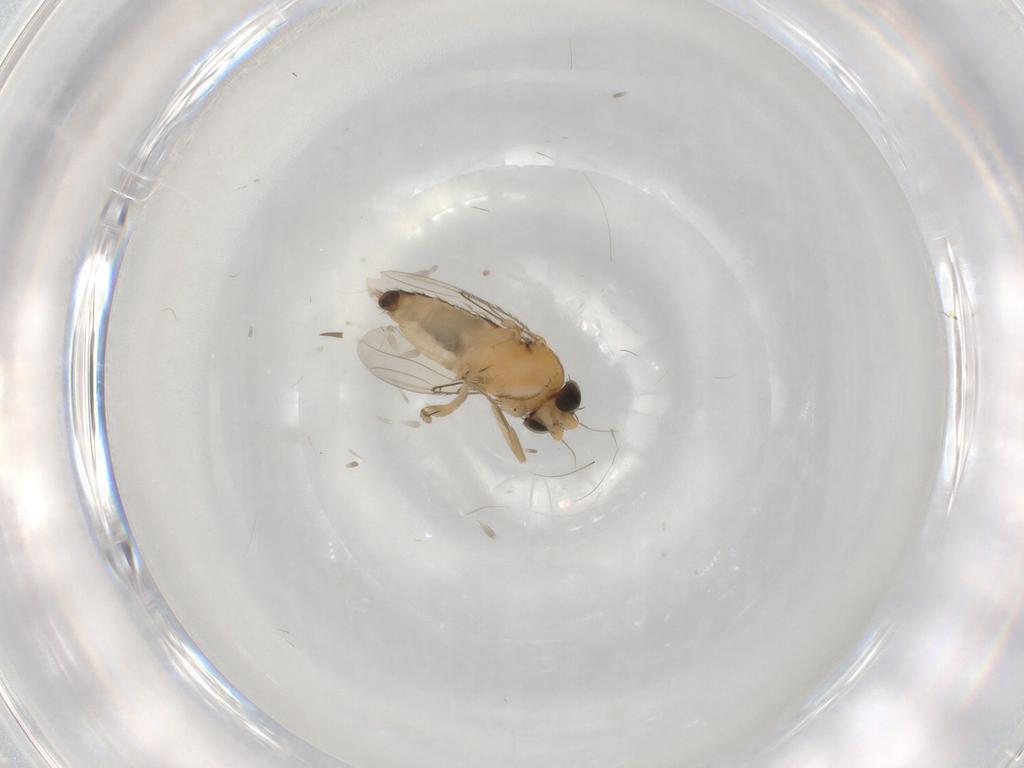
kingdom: Animalia
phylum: Arthropoda
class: Insecta
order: Diptera
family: Phoridae
